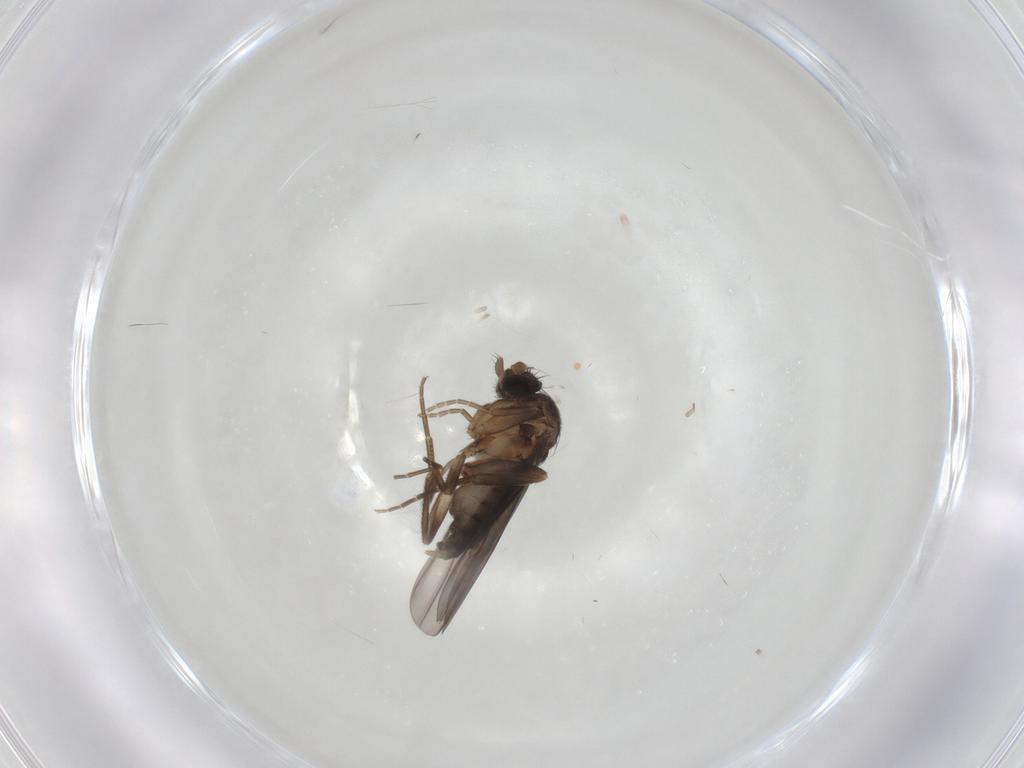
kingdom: Animalia
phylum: Arthropoda
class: Insecta
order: Diptera
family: Phoridae
